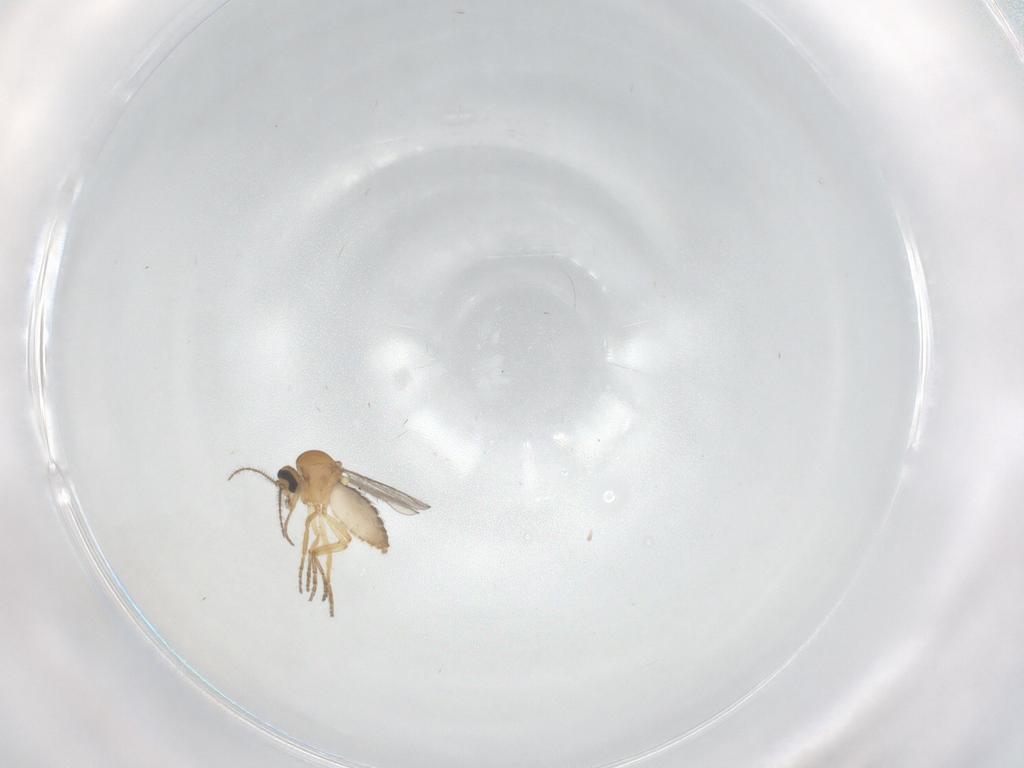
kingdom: Animalia
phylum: Arthropoda
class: Insecta
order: Diptera
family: Ceratopogonidae
